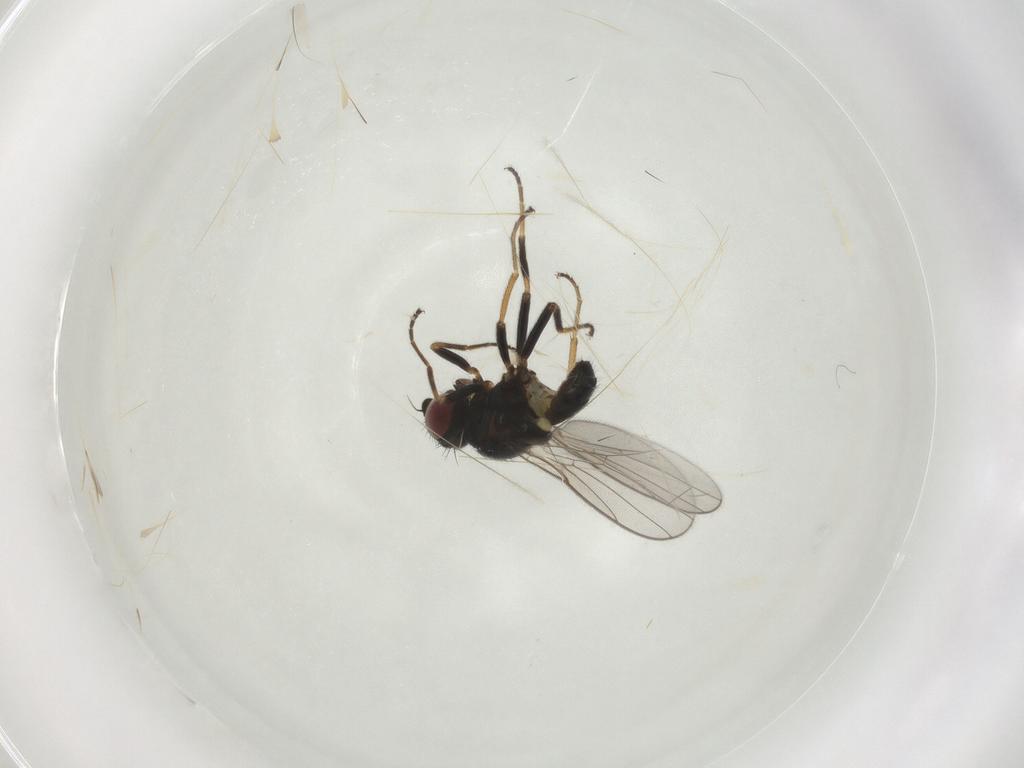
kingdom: Animalia
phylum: Arthropoda
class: Insecta
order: Diptera
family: Chloropidae
